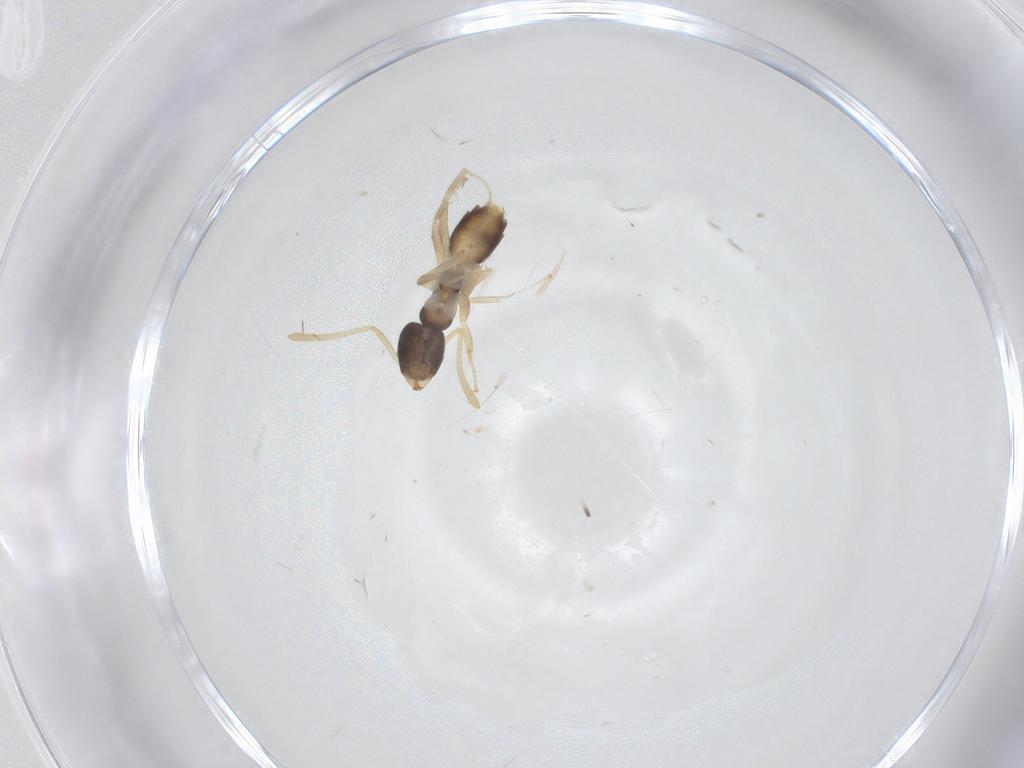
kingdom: Animalia
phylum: Arthropoda
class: Insecta
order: Hymenoptera
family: Formicidae
